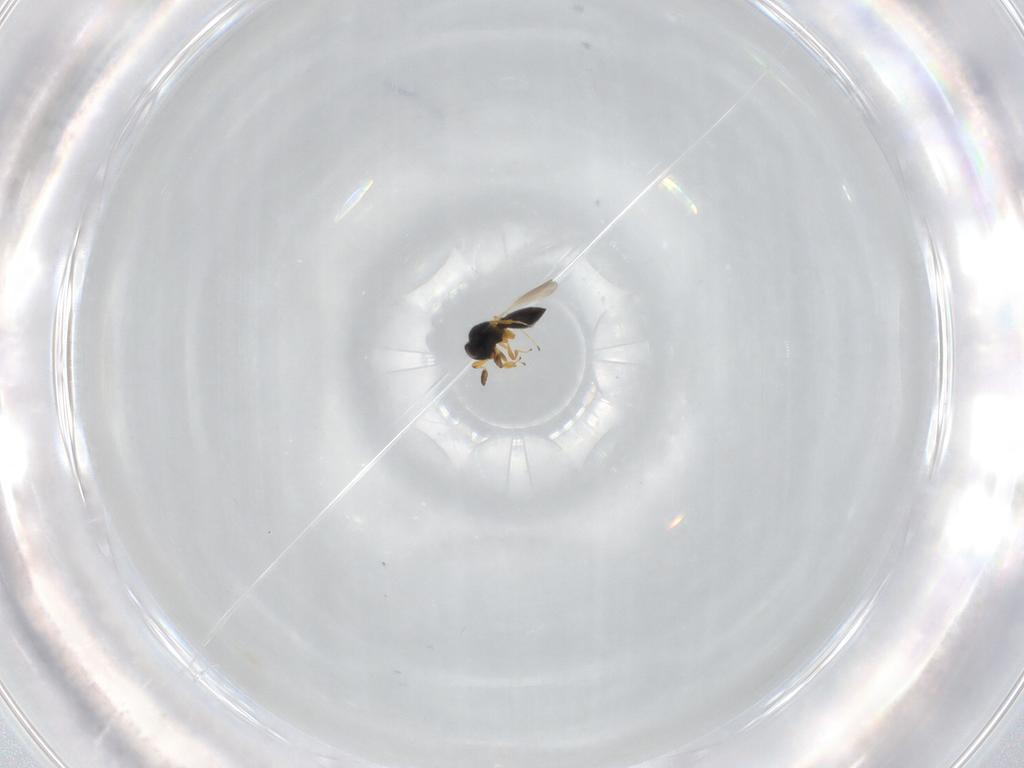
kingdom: Animalia
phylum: Arthropoda
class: Insecta
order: Hymenoptera
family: Platygastridae
